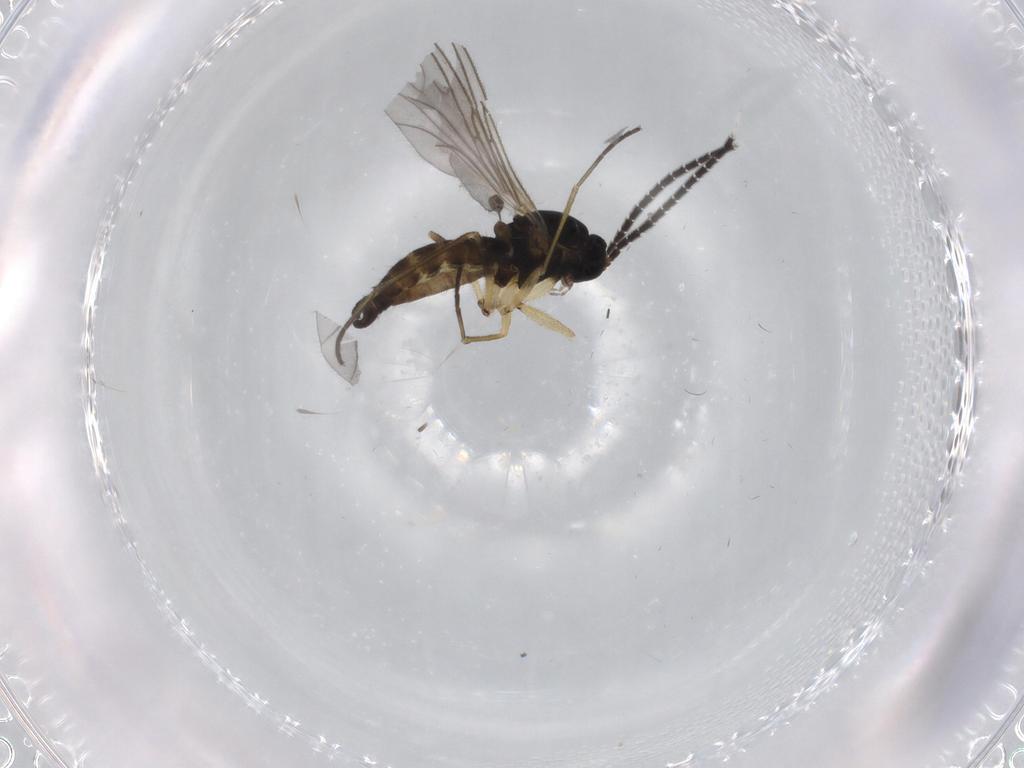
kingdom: Animalia
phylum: Arthropoda
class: Insecta
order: Diptera
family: Sciaridae
